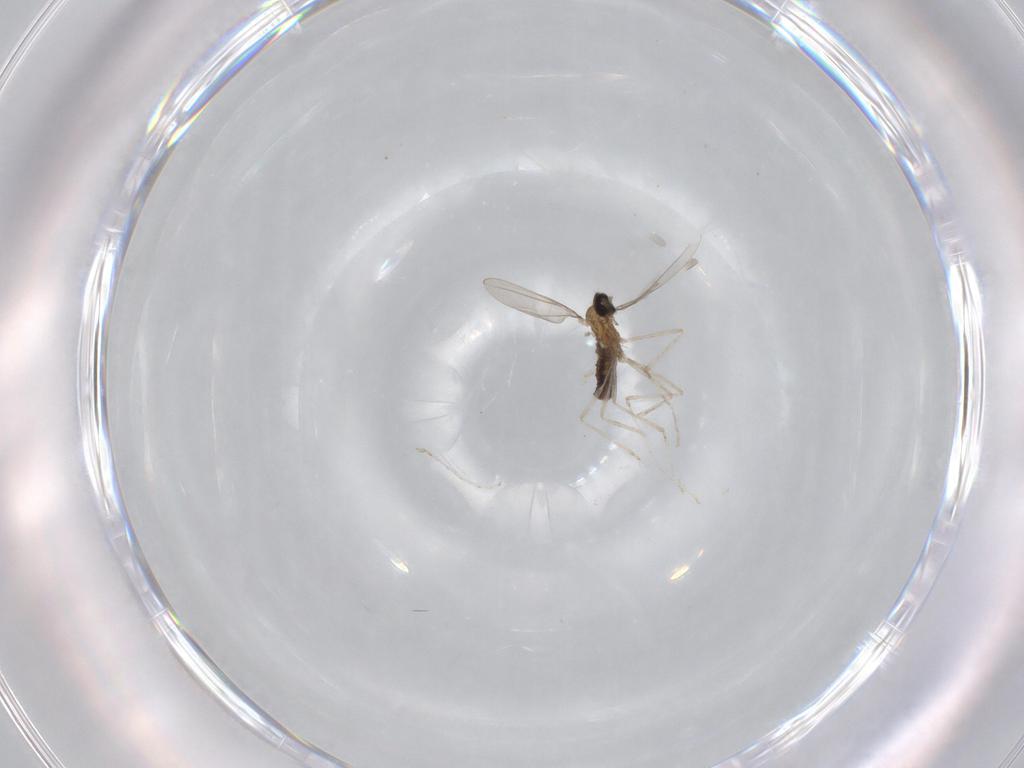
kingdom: Animalia
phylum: Arthropoda
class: Insecta
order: Diptera
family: Cecidomyiidae
